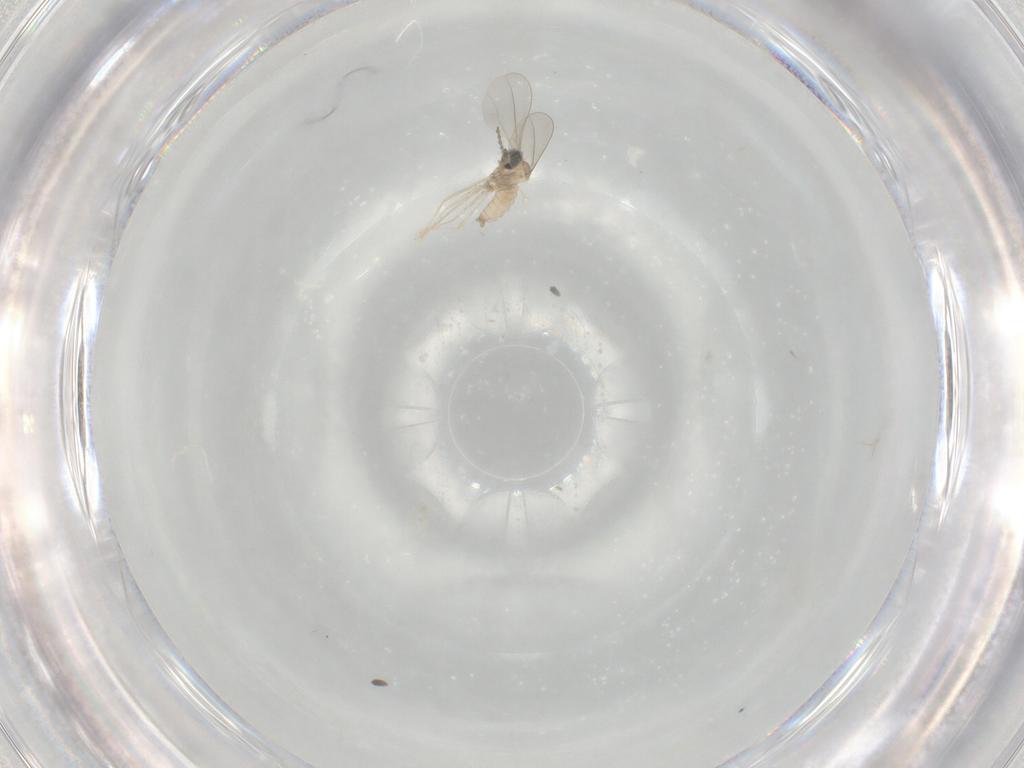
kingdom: Animalia
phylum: Arthropoda
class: Insecta
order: Diptera
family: Cecidomyiidae
